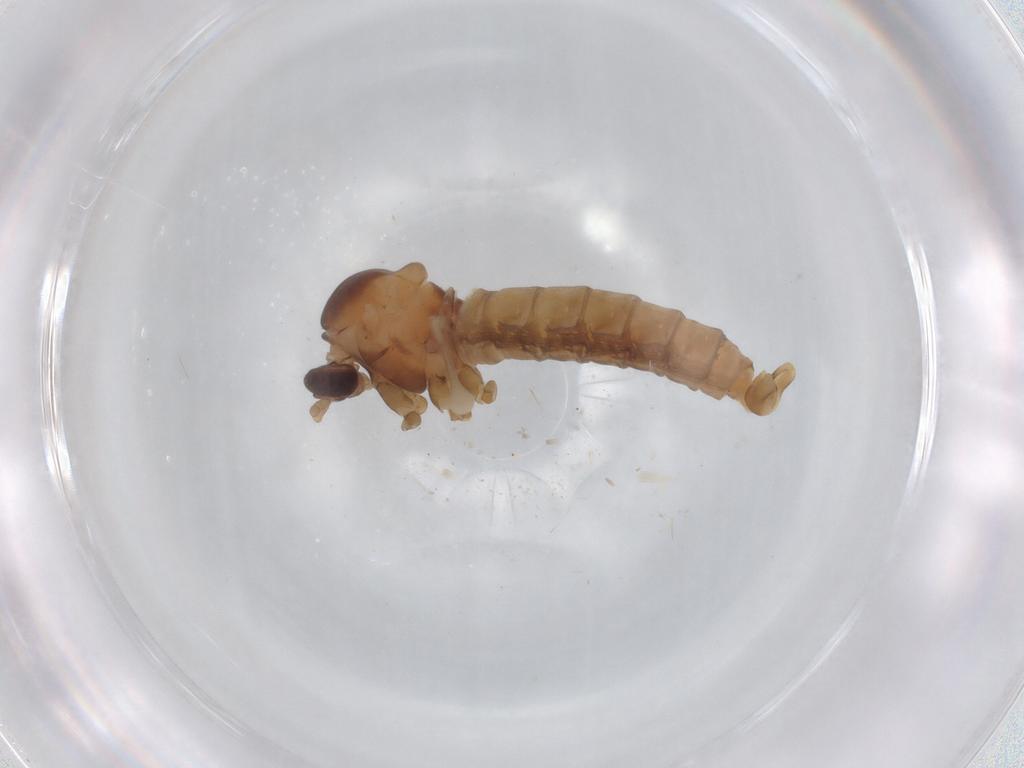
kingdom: Animalia
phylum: Arthropoda
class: Insecta
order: Diptera
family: Cecidomyiidae
